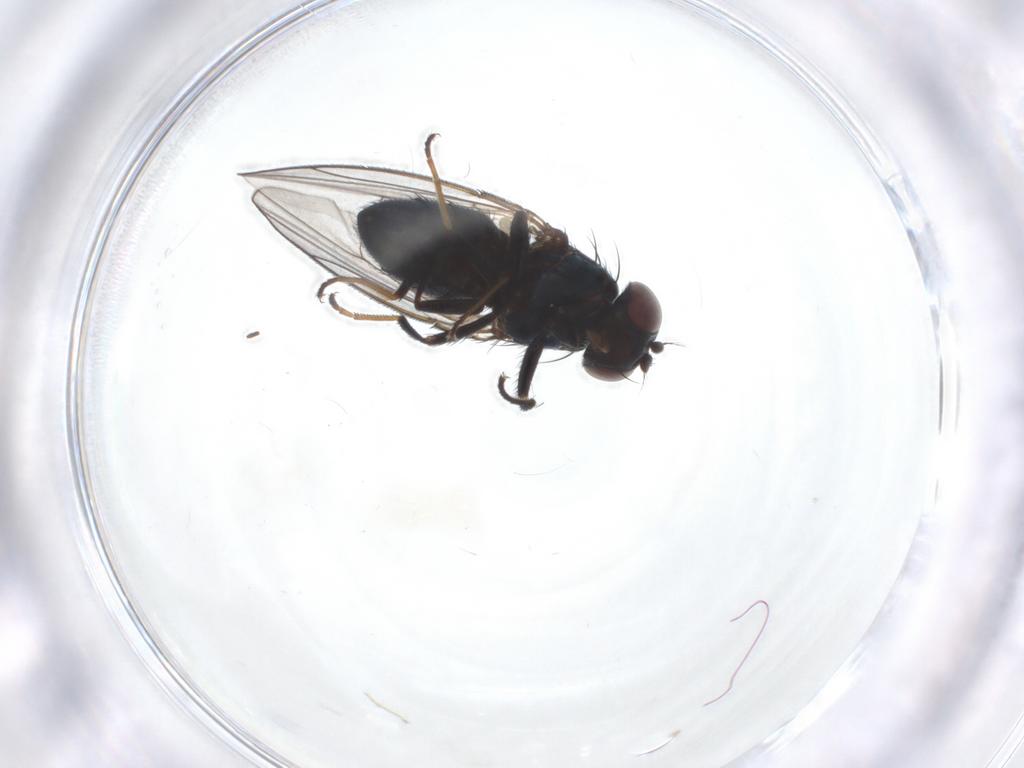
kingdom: Animalia
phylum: Arthropoda
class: Insecta
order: Diptera
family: Sciaridae
